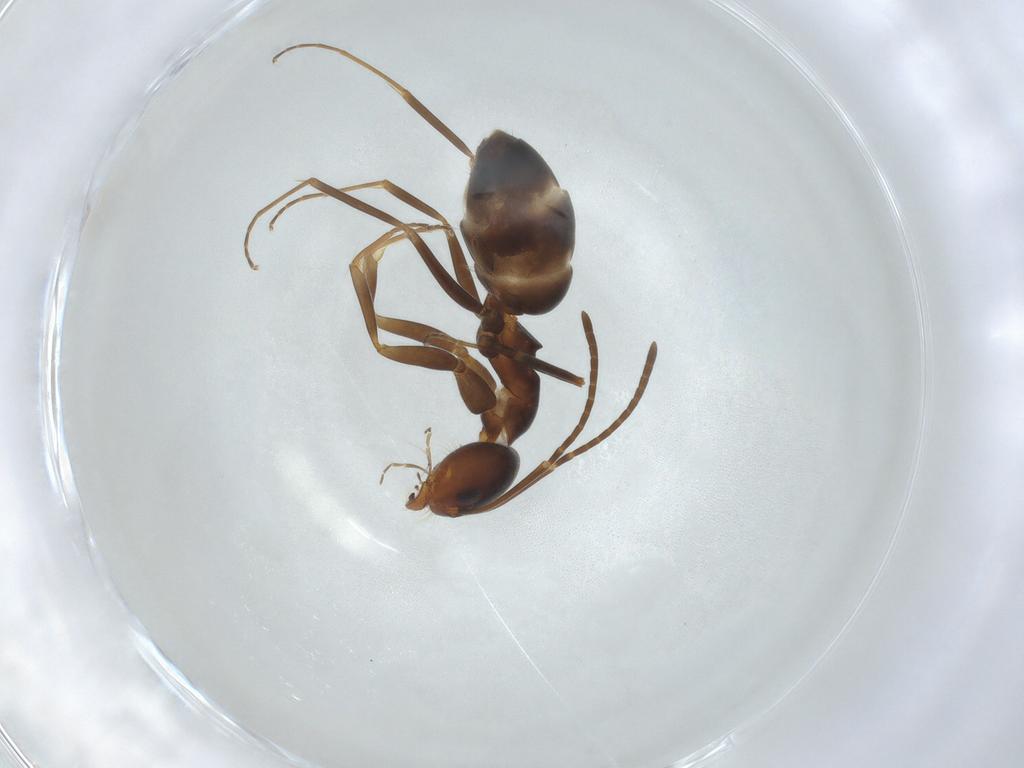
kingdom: Animalia
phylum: Arthropoda
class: Insecta
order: Hymenoptera
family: Formicidae
